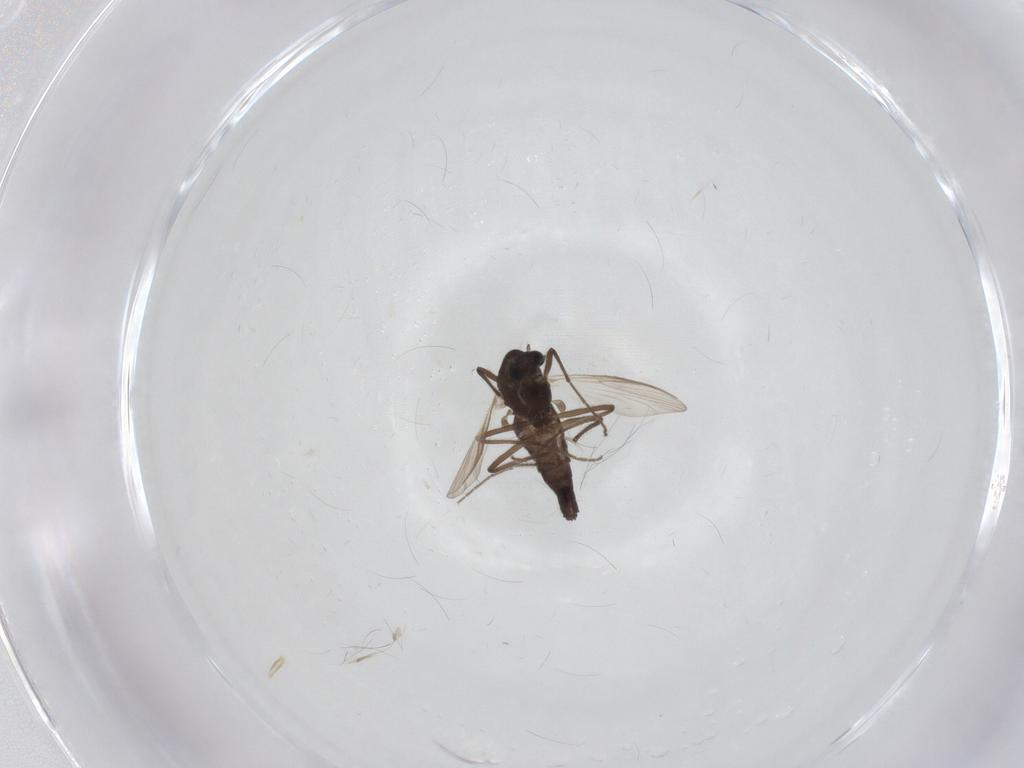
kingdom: Animalia
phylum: Arthropoda
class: Insecta
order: Diptera
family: Chironomidae
